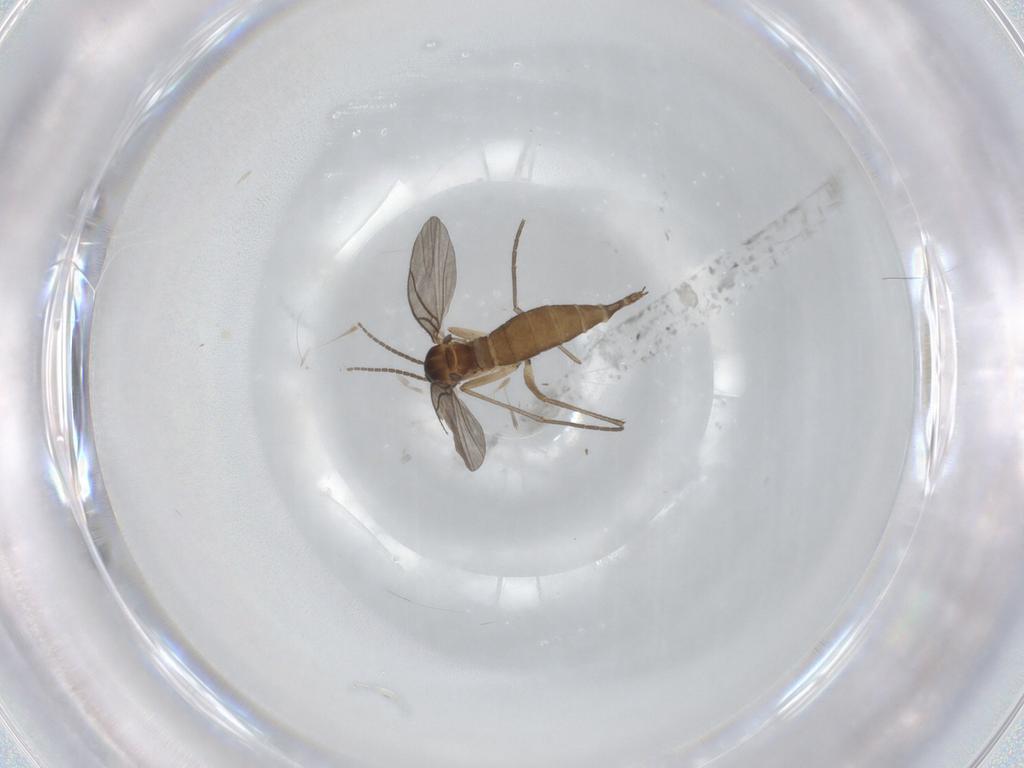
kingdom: Animalia
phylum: Arthropoda
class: Insecta
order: Diptera
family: Sciaridae
